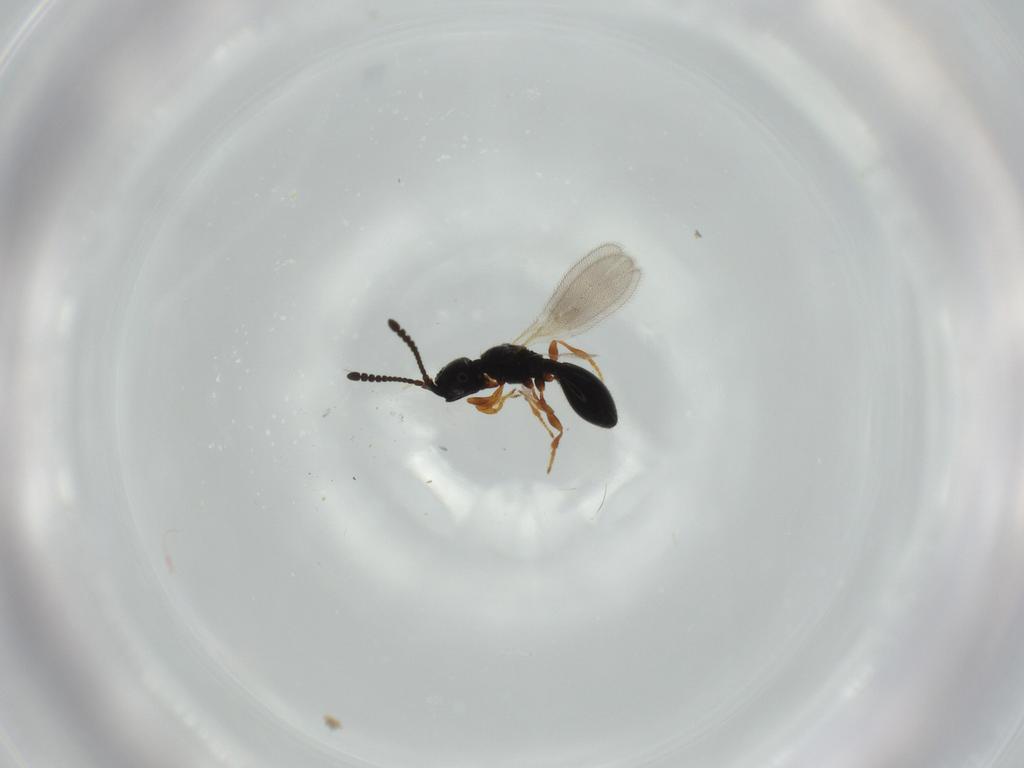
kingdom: Animalia
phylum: Arthropoda
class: Insecta
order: Hymenoptera
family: Diapriidae
